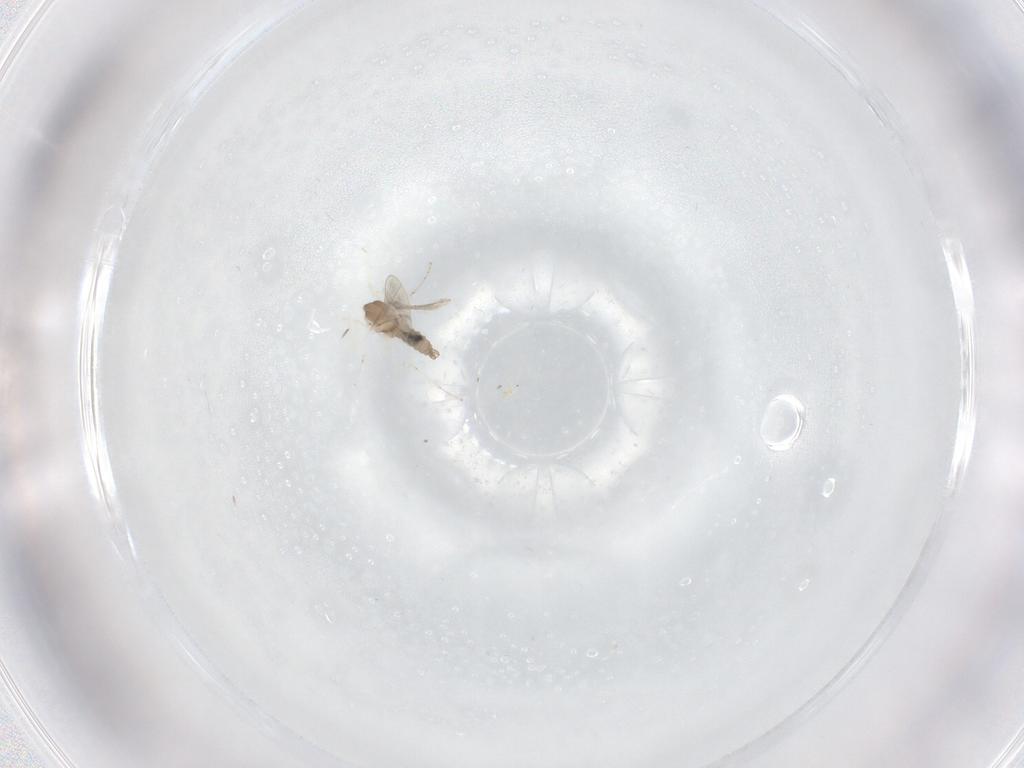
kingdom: Animalia
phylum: Arthropoda
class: Insecta
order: Diptera
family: Cecidomyiidae
